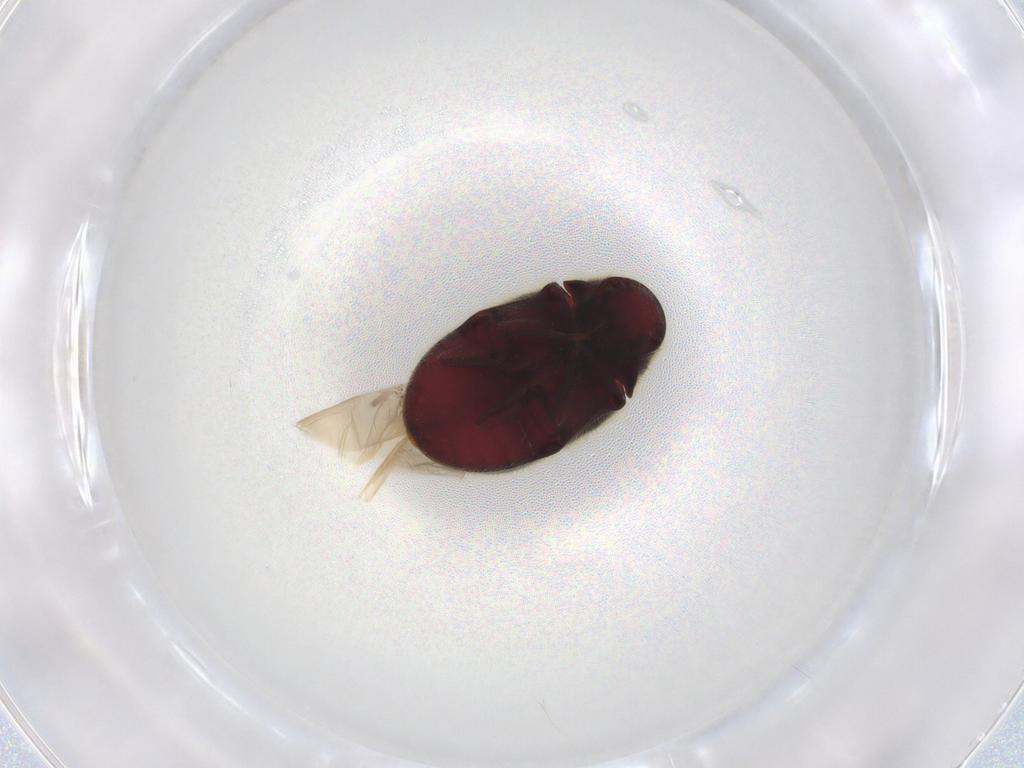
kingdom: Animalia
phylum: Arthropoda
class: Insecta
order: Coleoptera
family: Ptinidae
